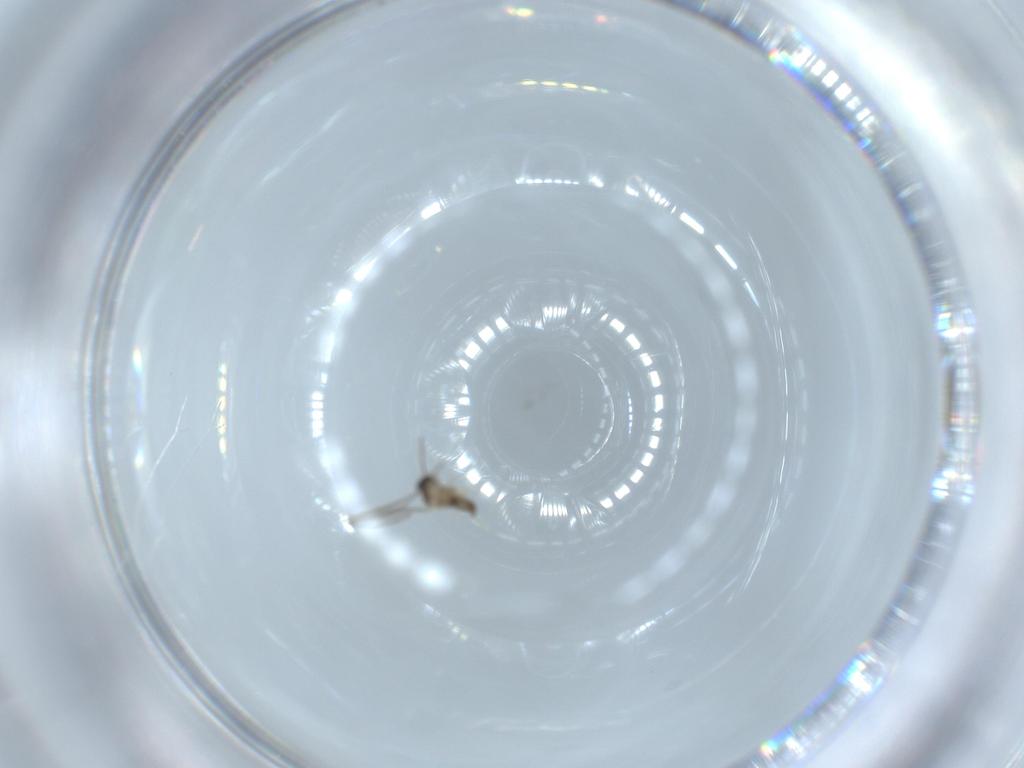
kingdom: Animalia
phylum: Arthropoda
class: Insecta
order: Diptera
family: Cecidomyiidae
